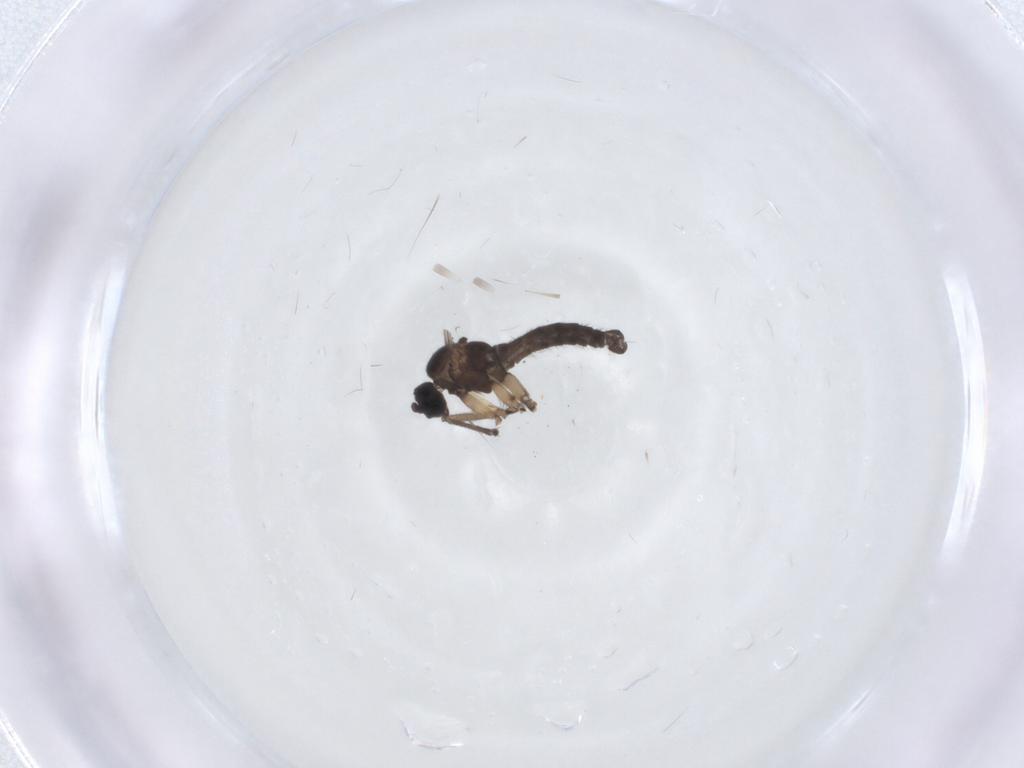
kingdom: Animalia
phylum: Arthropoda
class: Insecta
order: Diptera
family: Sciaridae
